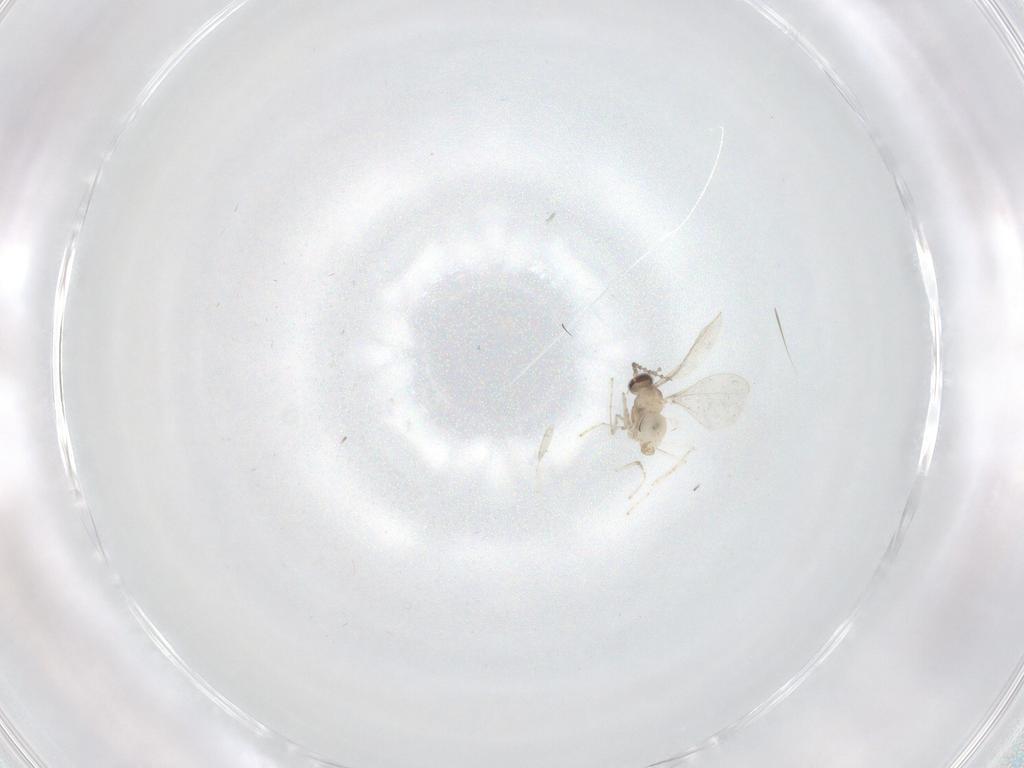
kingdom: Animalia
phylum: Arthropoda
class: Insecta
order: Diptera
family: Cecidomyiidae
